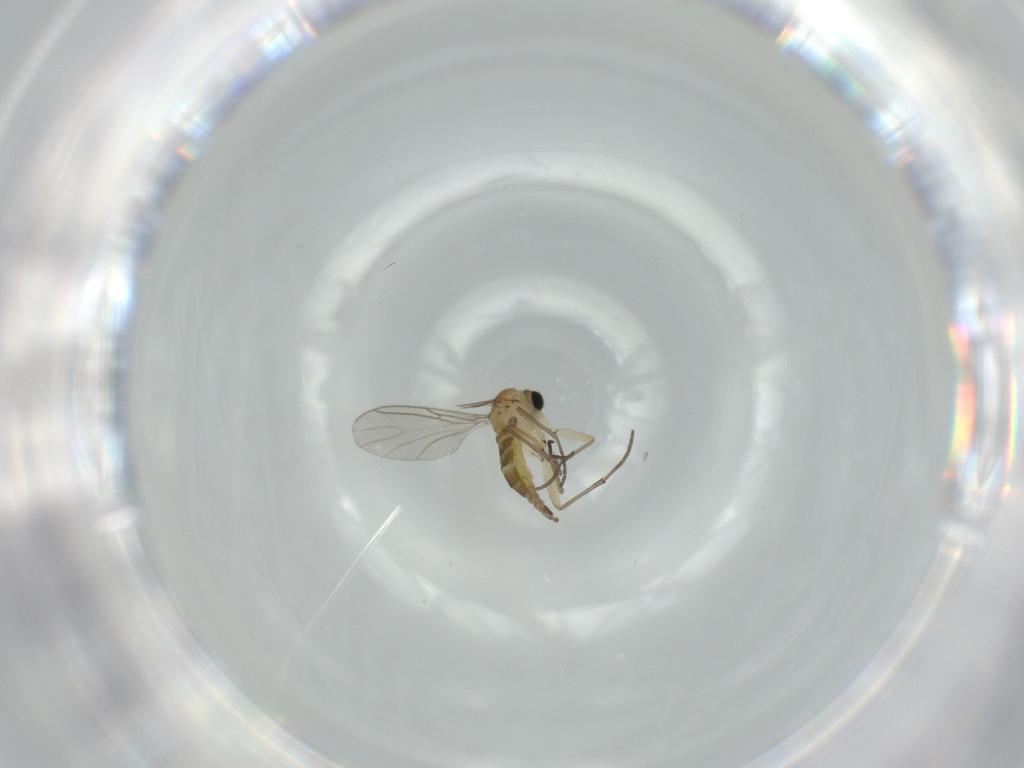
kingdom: Animalia
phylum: Arthropoda
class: Insecta
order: Diptera
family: Sciaridae
